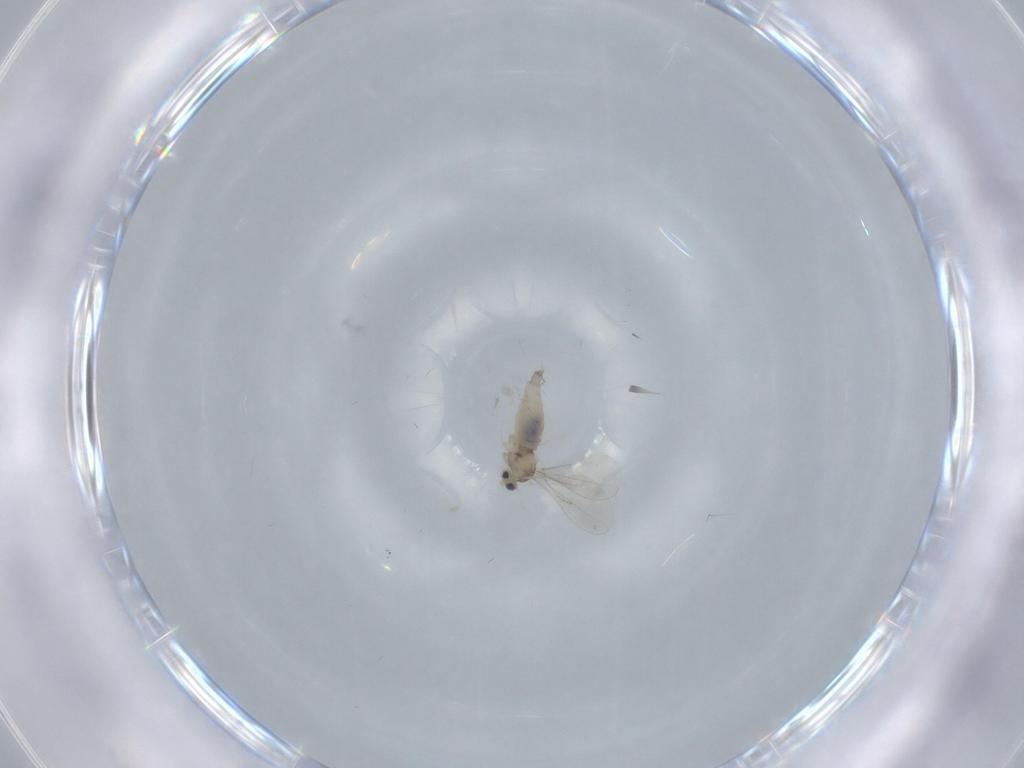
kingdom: Animalia
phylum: Arthropoda
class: Insecta
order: Diptera
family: Cecidomyiidae
